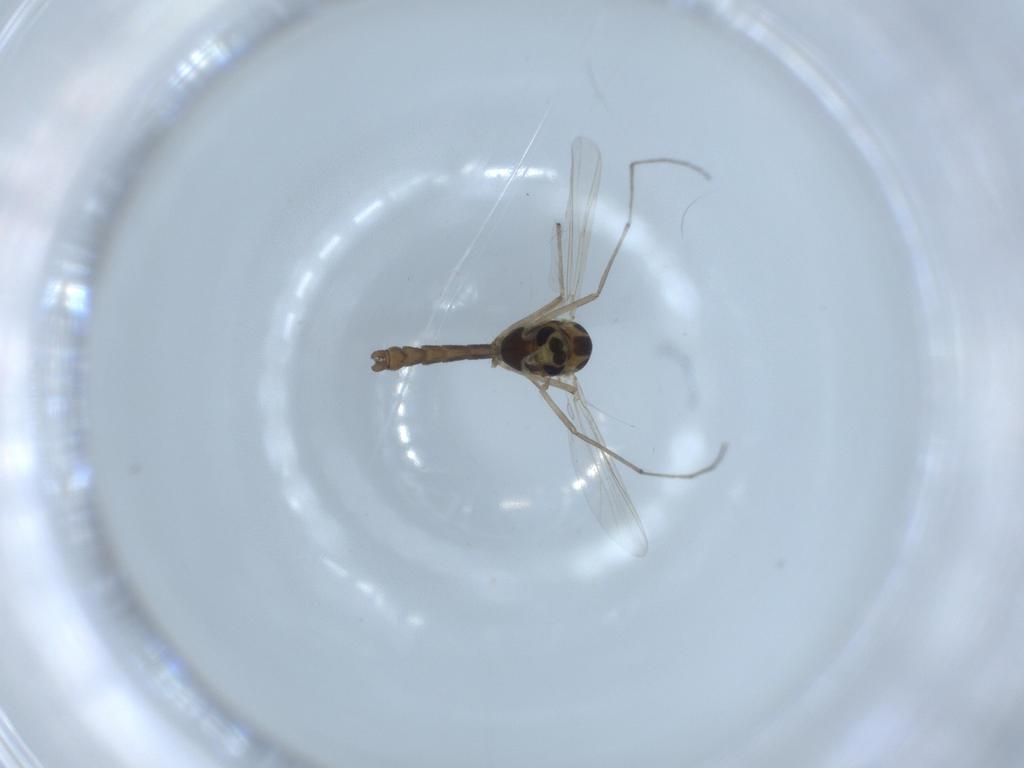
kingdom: Animalia
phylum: Arthropoda
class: Insecta
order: Diptera
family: Chironomidae
